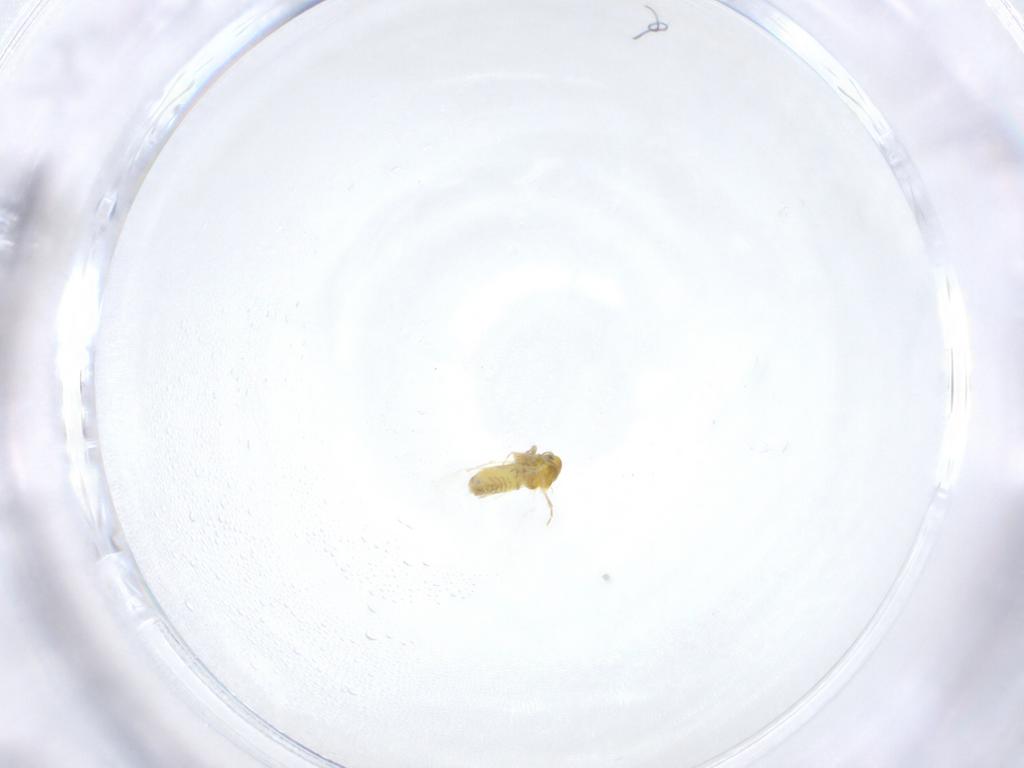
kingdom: Animalia
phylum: Arthropoda
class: Insecta
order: Hemiptera
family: Aleyrodidae
